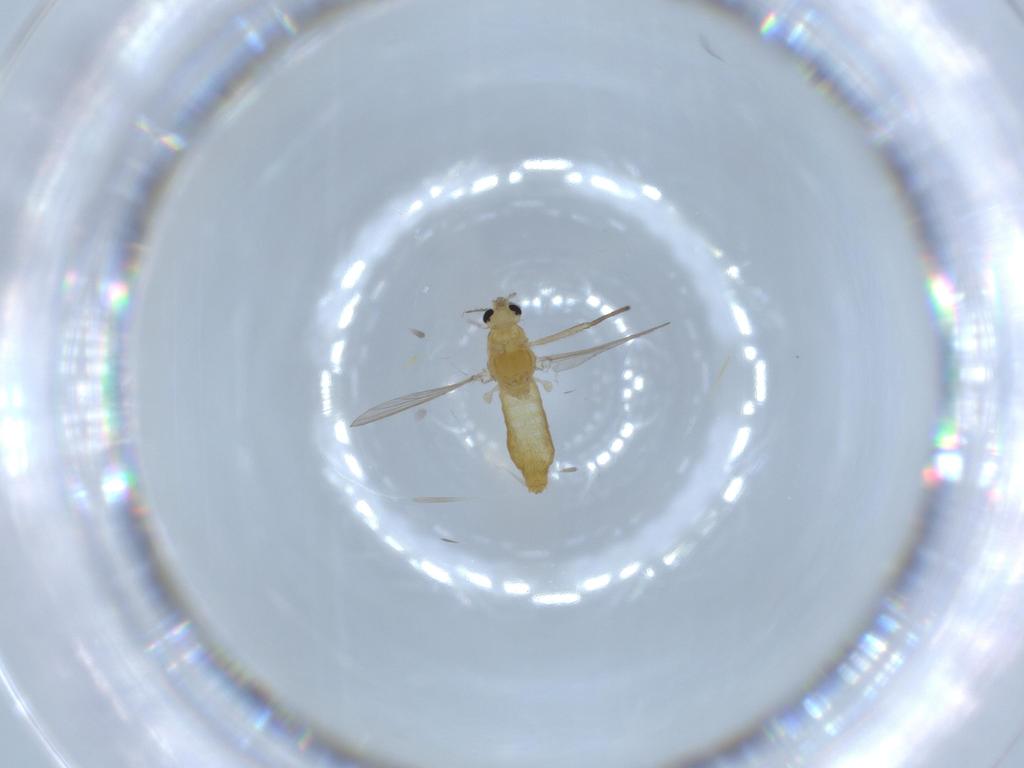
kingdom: Animalia
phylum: Arthropoda
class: Insecta
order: Diptera
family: Chironomidae
